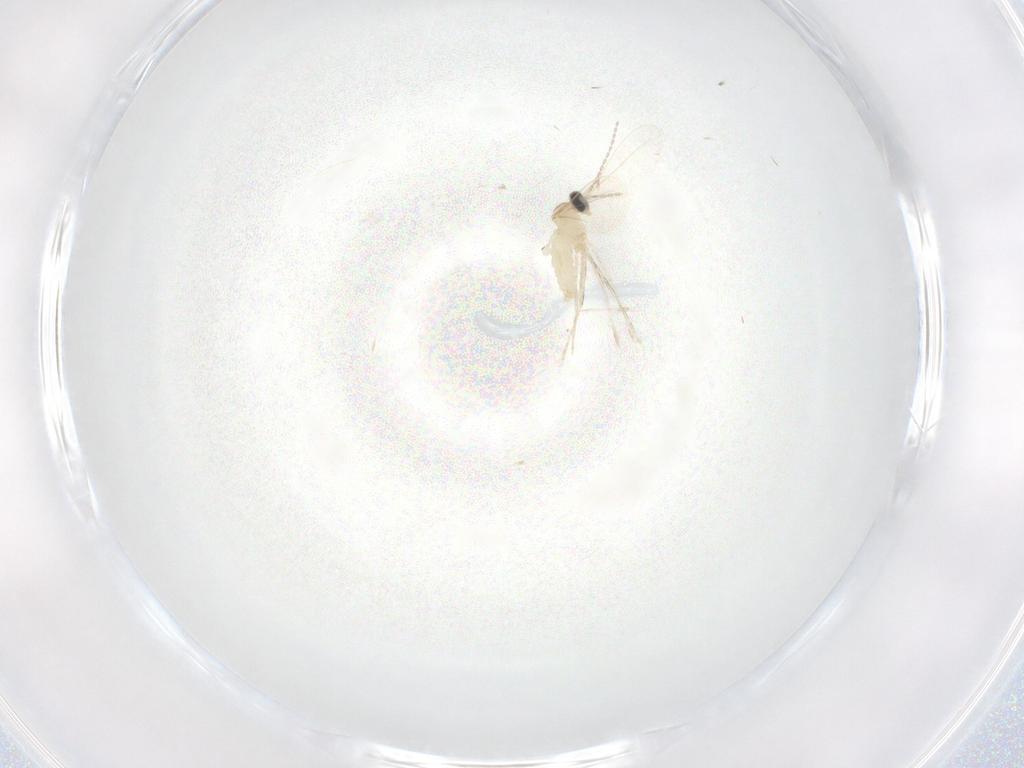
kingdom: Animalia
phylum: Arthropoda
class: Insecta
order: Diptera
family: Cecidomyiidae
